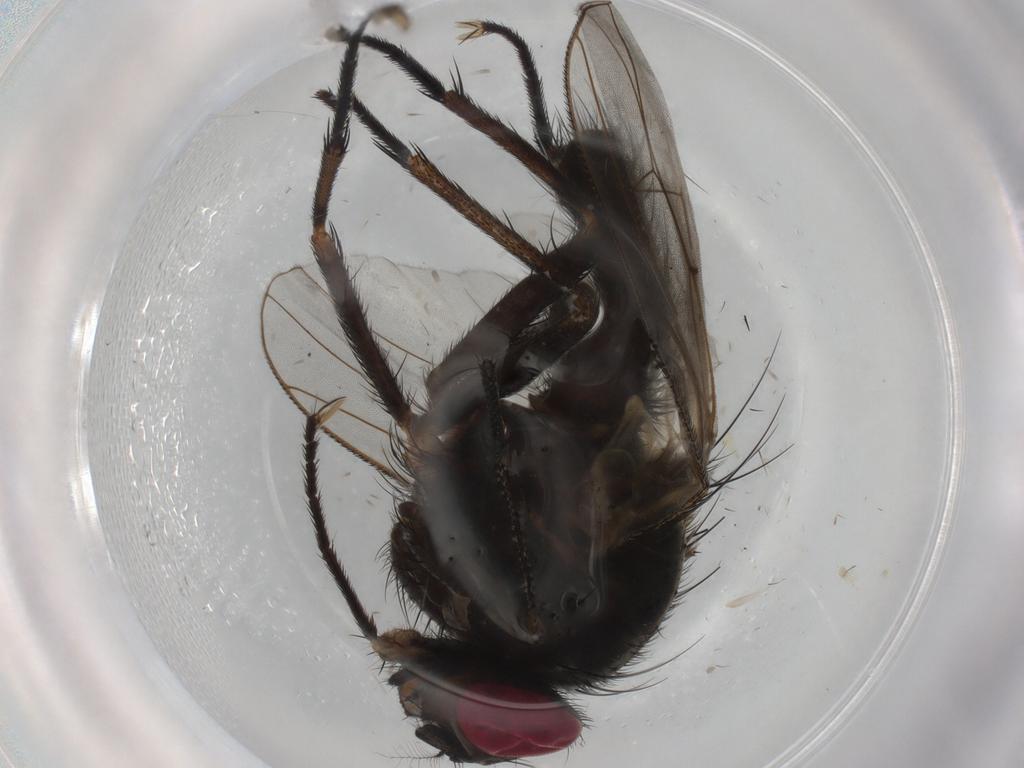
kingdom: Animalia
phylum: Arthropoda
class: Insecta
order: Diptera
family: Muscidae
